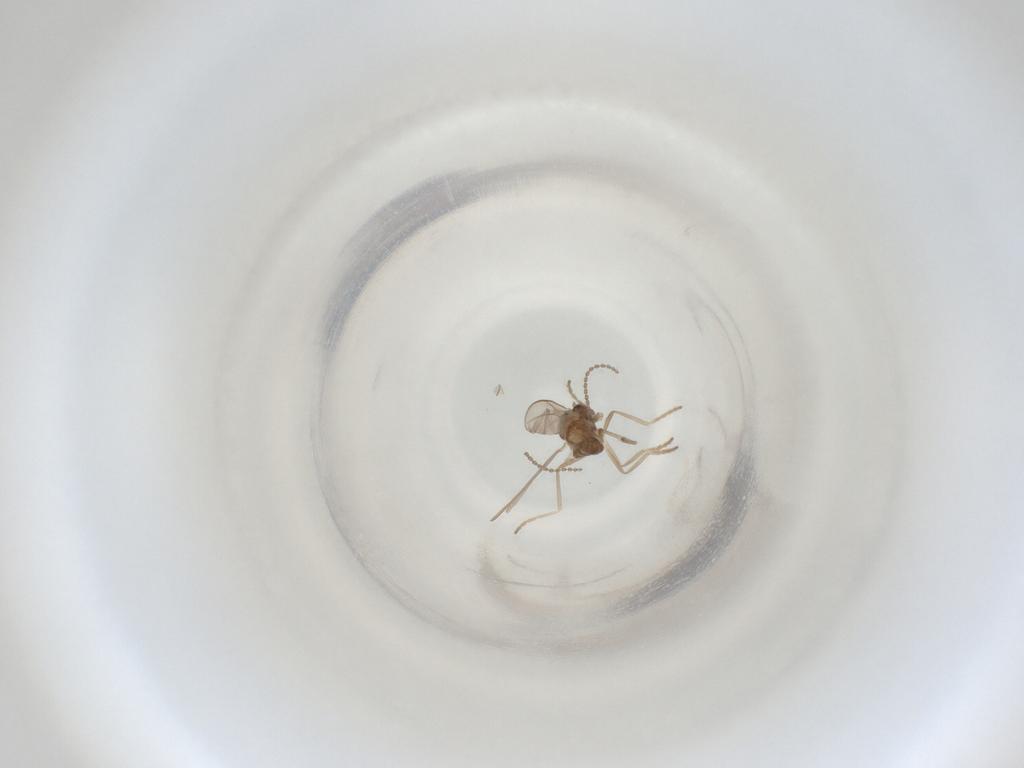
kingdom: Animalia
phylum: Arthropoda
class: Insecta
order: Diptera
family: Cecidomyiidae
